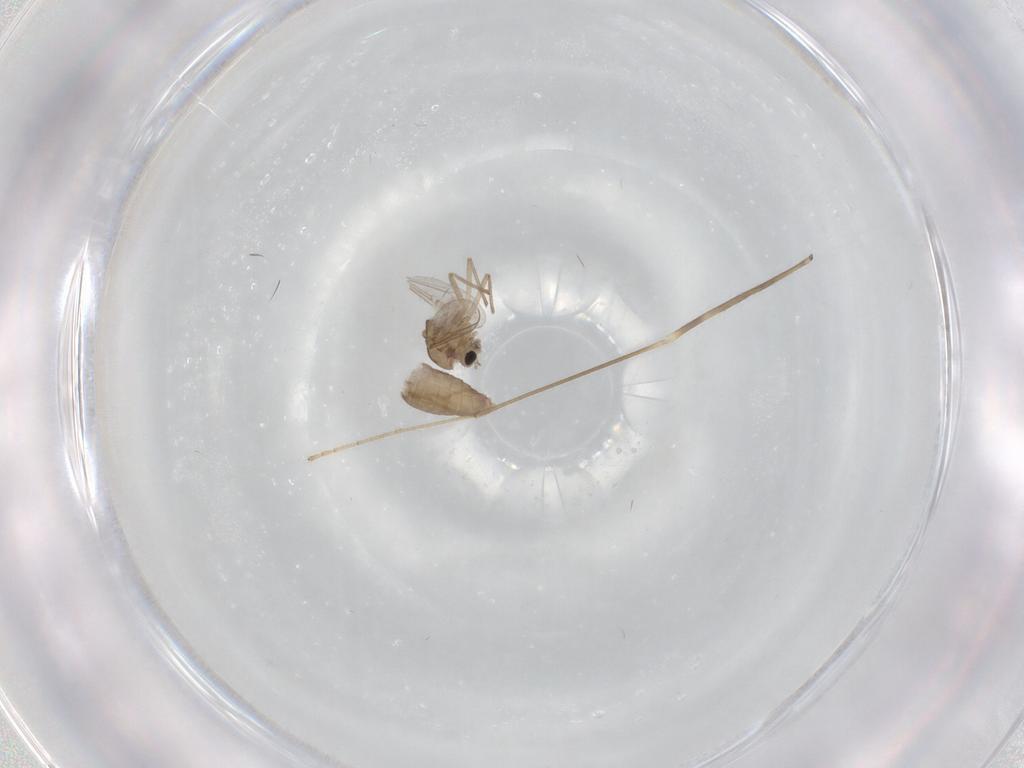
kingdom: Animalia
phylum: Arthropoda
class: Insecta
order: Diptera
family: Chironomidae
